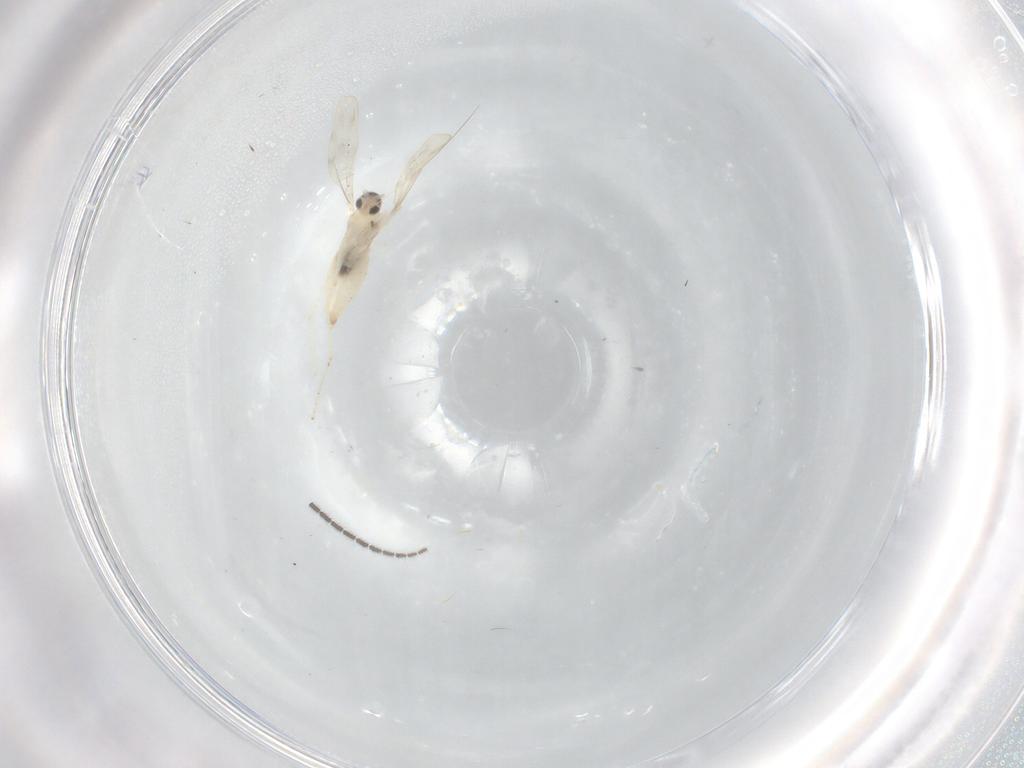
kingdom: Animalia
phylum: Arthropoda
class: Insecta
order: Diptera
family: Sciaridae
